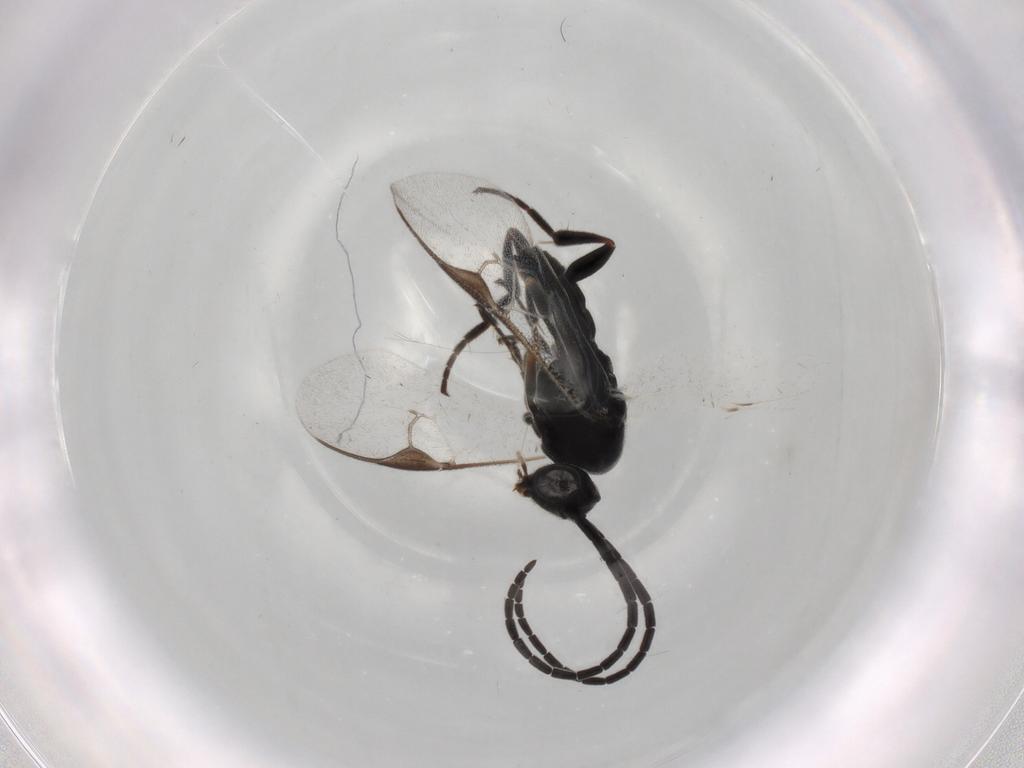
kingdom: Animalia
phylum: Arthropoda
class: Insecta
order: Hymenoptera
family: Braconidae
